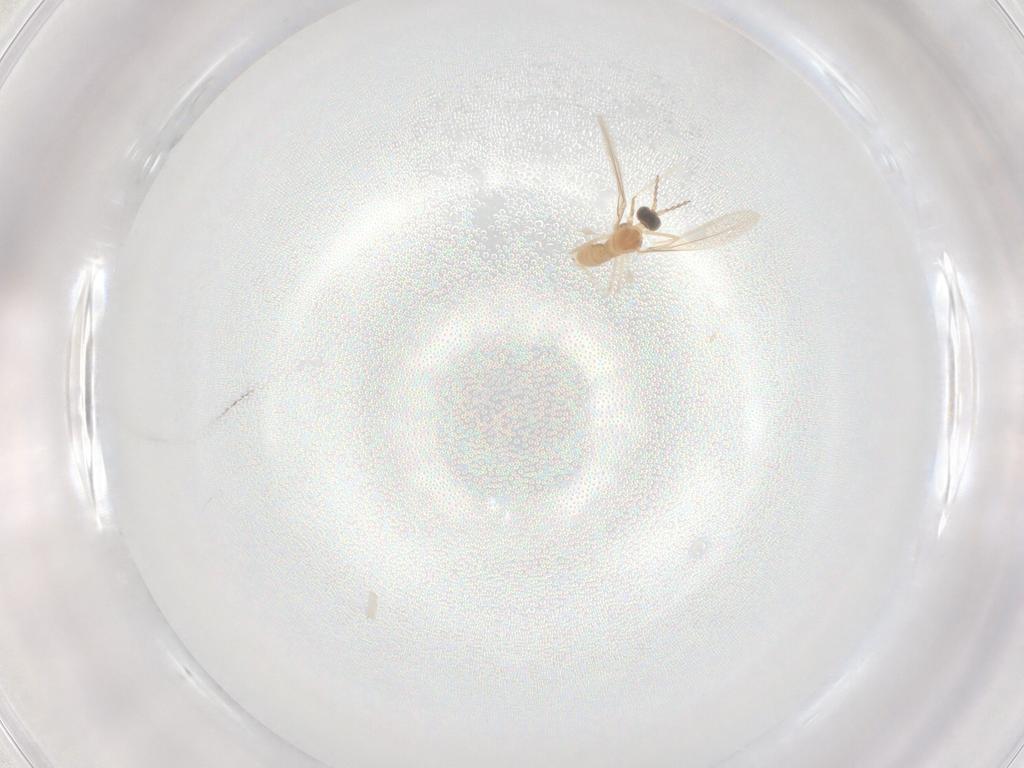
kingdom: Animalia
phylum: Arthropoda
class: Insecta
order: Diptera
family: Cecidomyiidae
